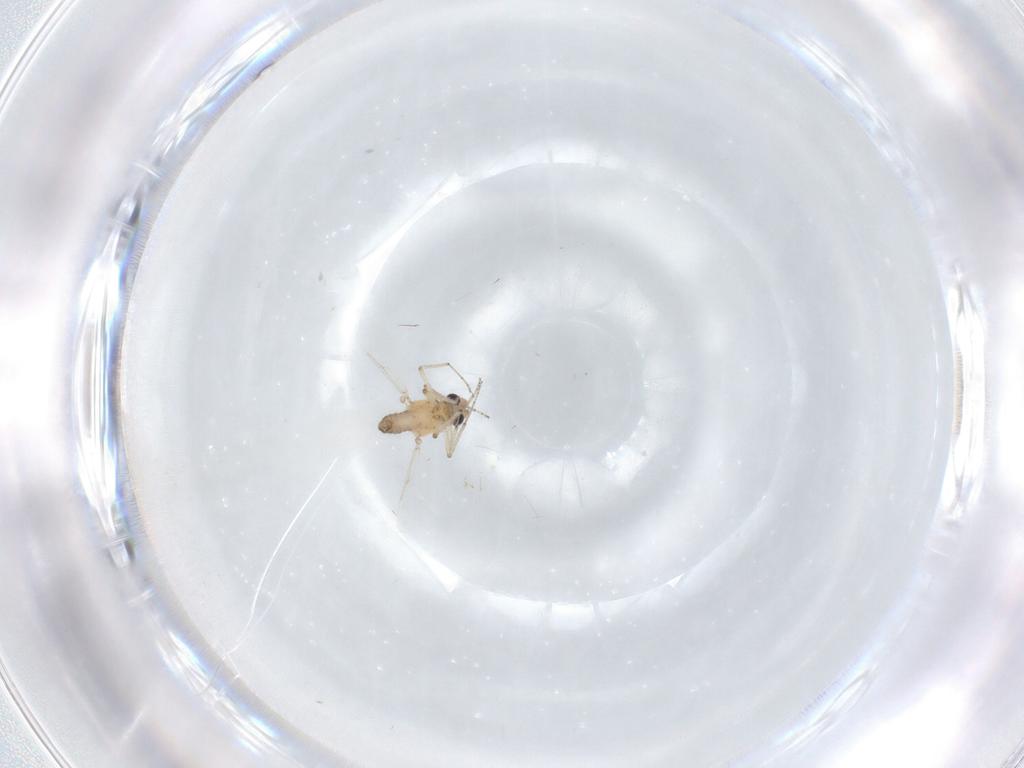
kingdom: Animalia
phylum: Arthropoda
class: Insecta
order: Diptera
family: Ceratopogonidae
